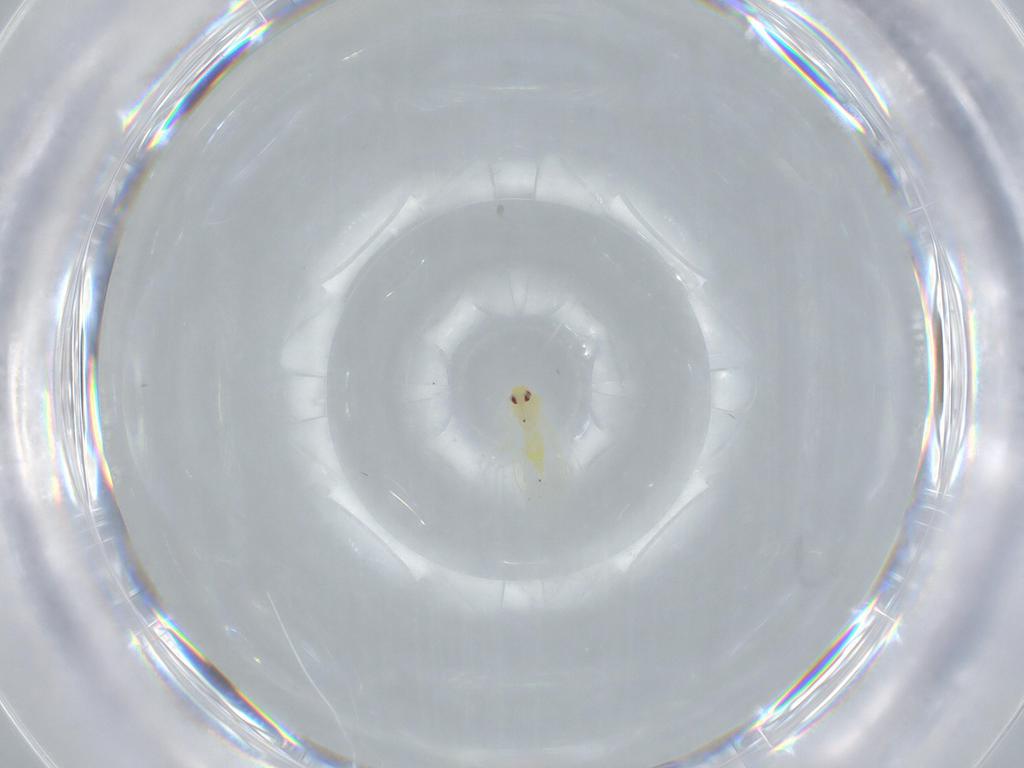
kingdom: Animalia
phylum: Arthropoda
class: Insecta
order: Hemiptera
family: Aleyrodidae
